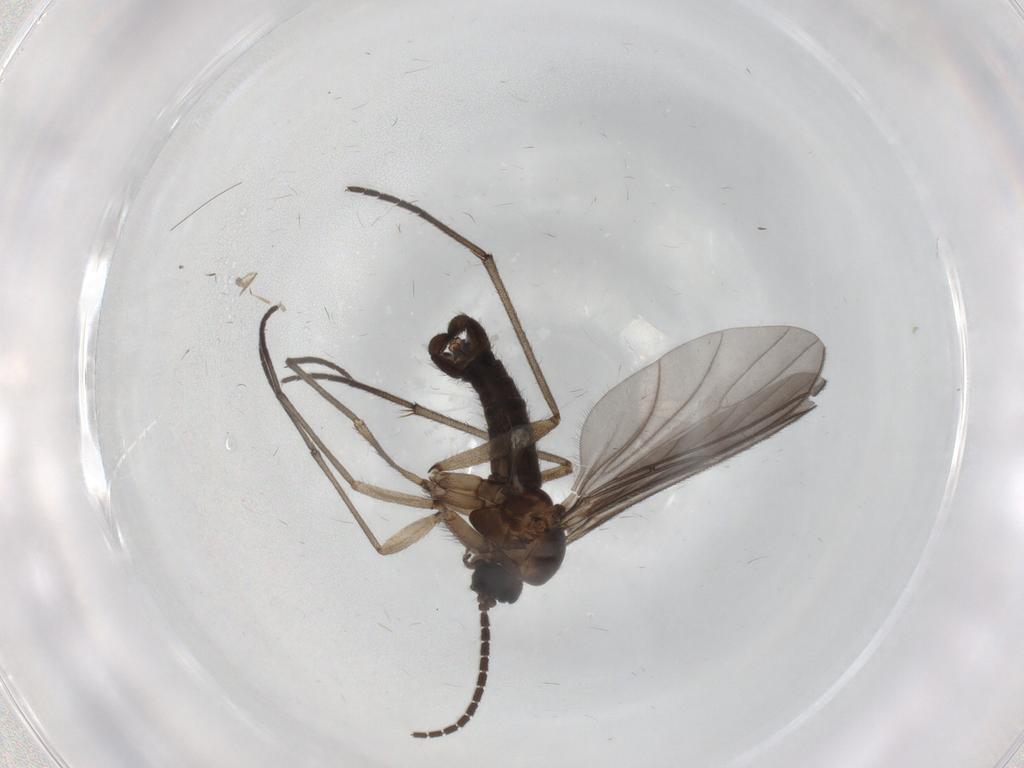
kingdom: Animalia
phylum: Arthropoda
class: Insecta
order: Diptera
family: Sciaridae
